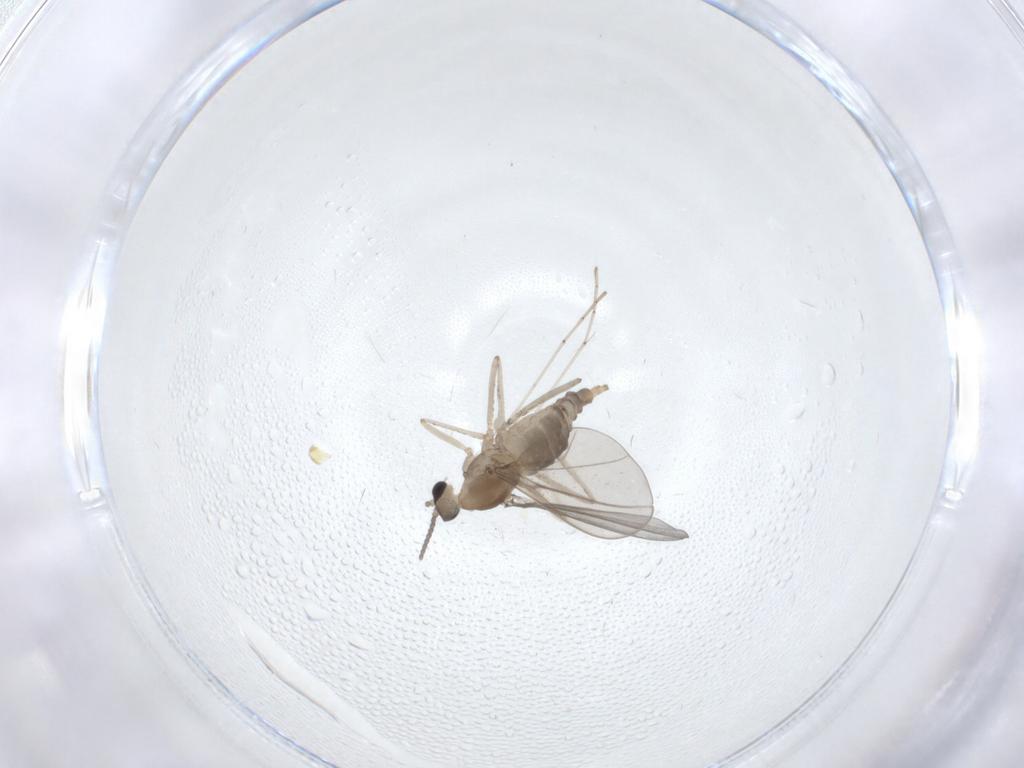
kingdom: Animalia
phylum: Arthropoda
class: Insecta
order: Diptera
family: Cecidomyiidae
